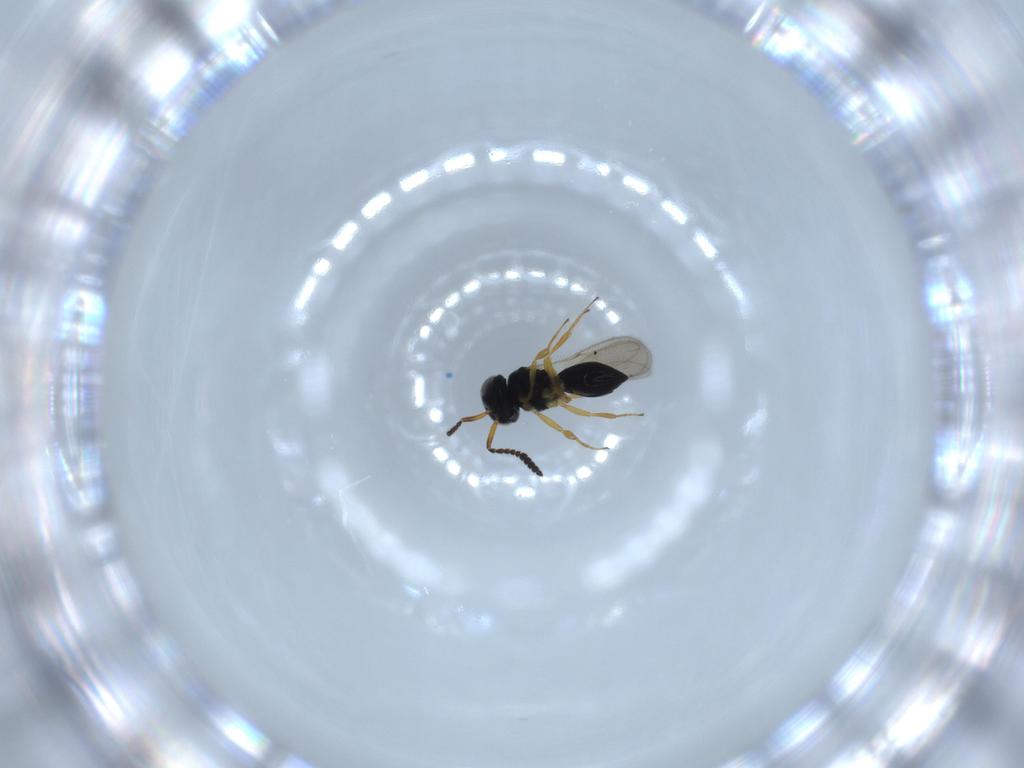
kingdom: Animalia
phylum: Arthropoda
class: Insecta
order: Hymenoptera
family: Scelionidae
